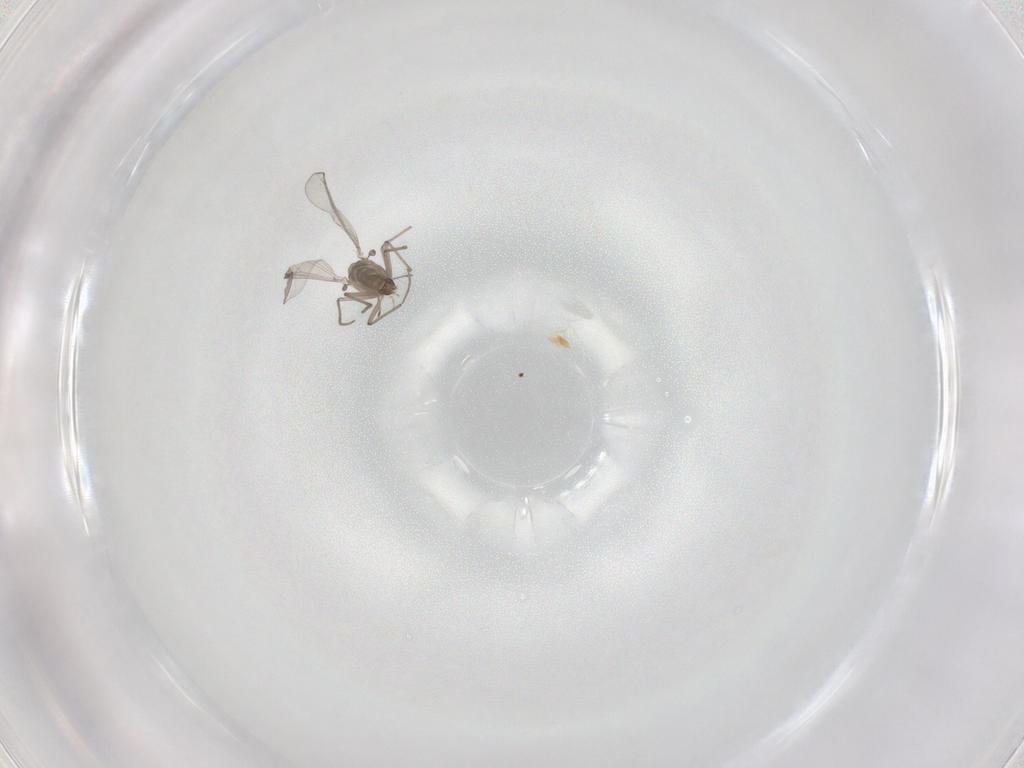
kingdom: Animalia
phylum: Arthropoda
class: Insecta
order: Diptera
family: Chironomidae
